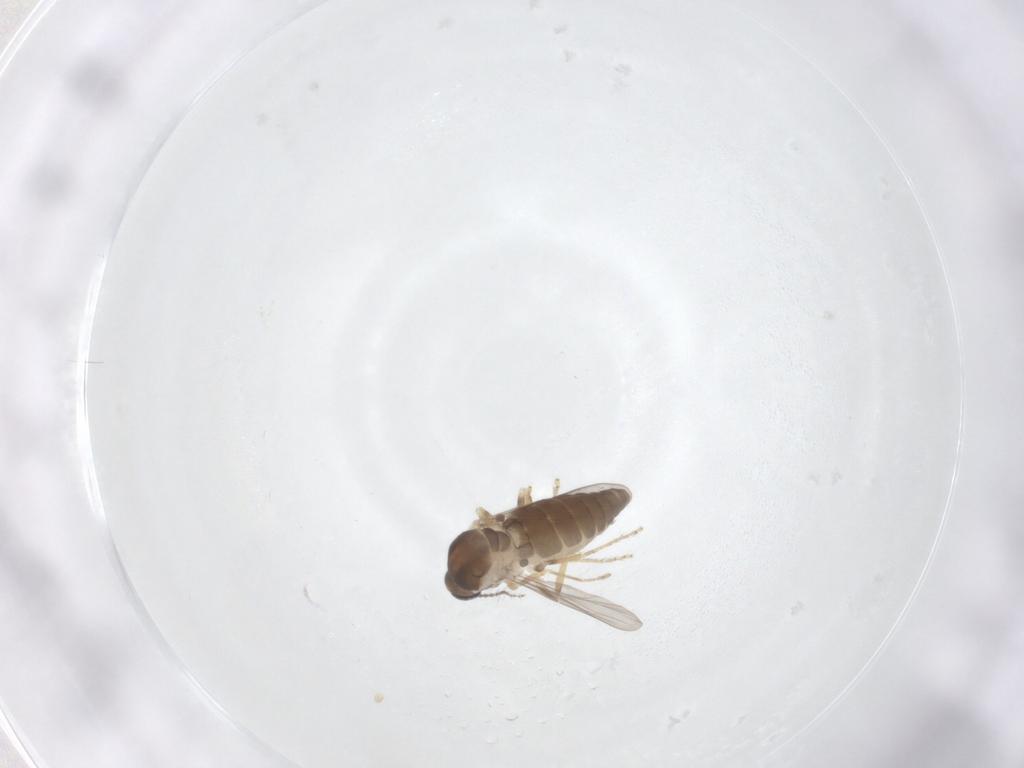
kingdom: Animalia
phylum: Arthropoda
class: Insecta
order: Diptera
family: Ceratopogonidae
